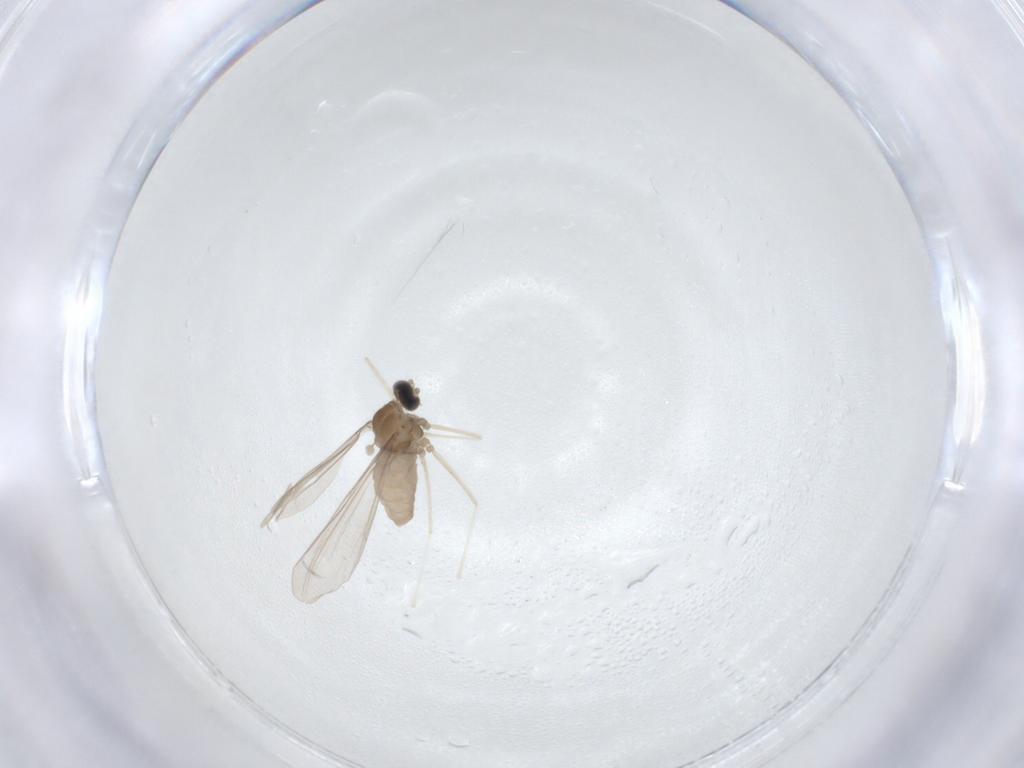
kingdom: Animalia
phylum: Arthropoda
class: Insecta
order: Diptera
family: Cecidomyiidae
